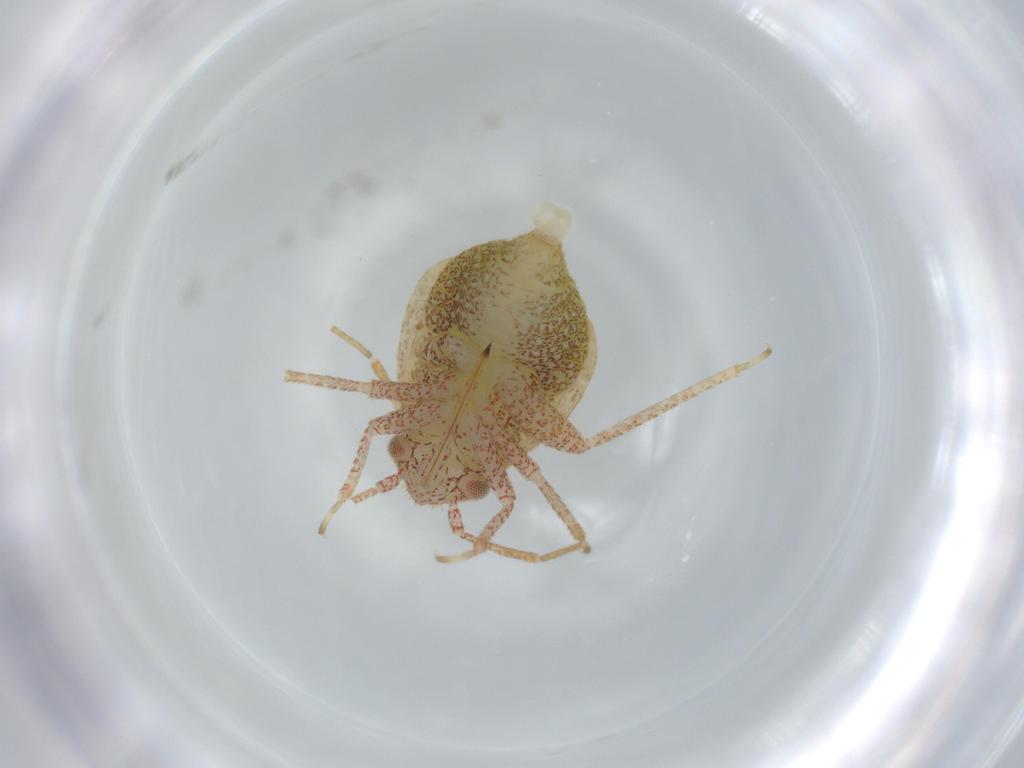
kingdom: Animalia
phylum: Arthropoda
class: Insecta
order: Hemiptera
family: Miridae
